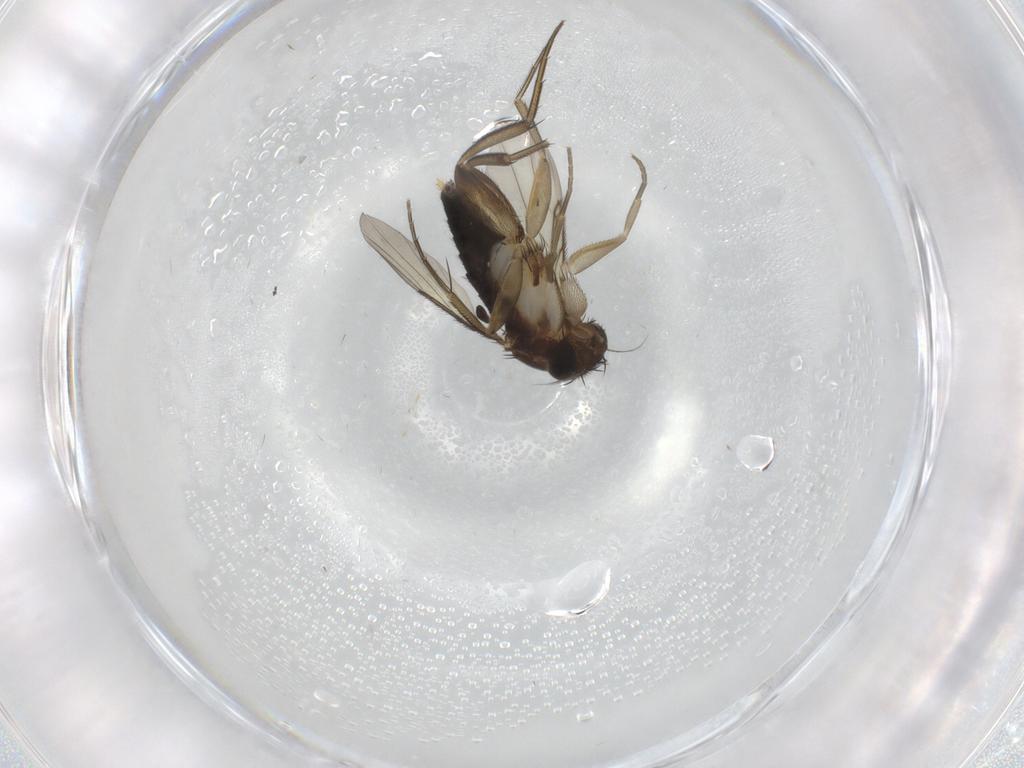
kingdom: Animalia
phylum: Arthropoda
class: Insecta
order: Diptera
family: Phoridae
